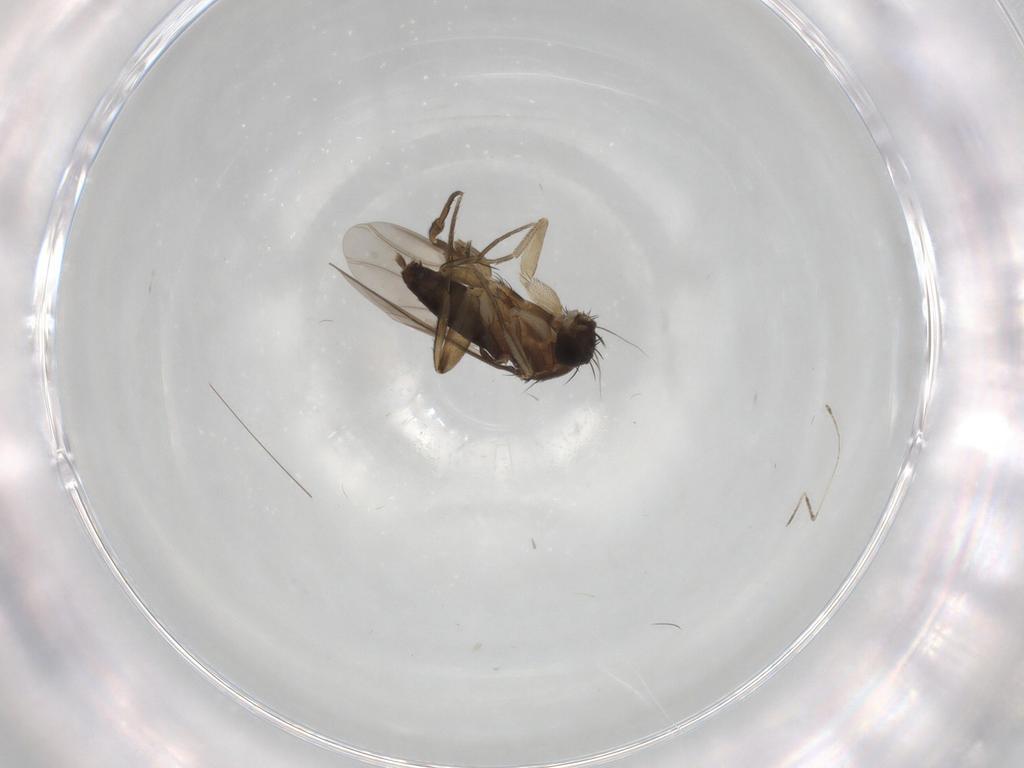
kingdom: Animalia
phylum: Arthropoda
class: Insecta
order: Diptera
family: Phoridae
